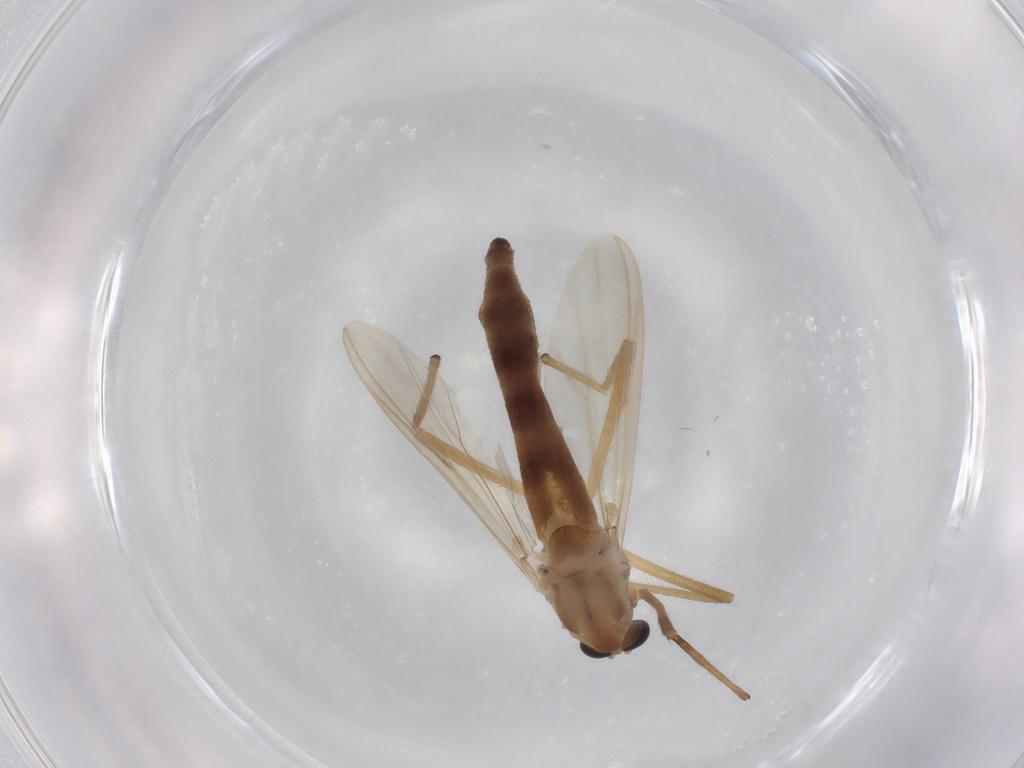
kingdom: Animalia
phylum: Arthropoda
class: Insecta
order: Diptera
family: Chironomidae
